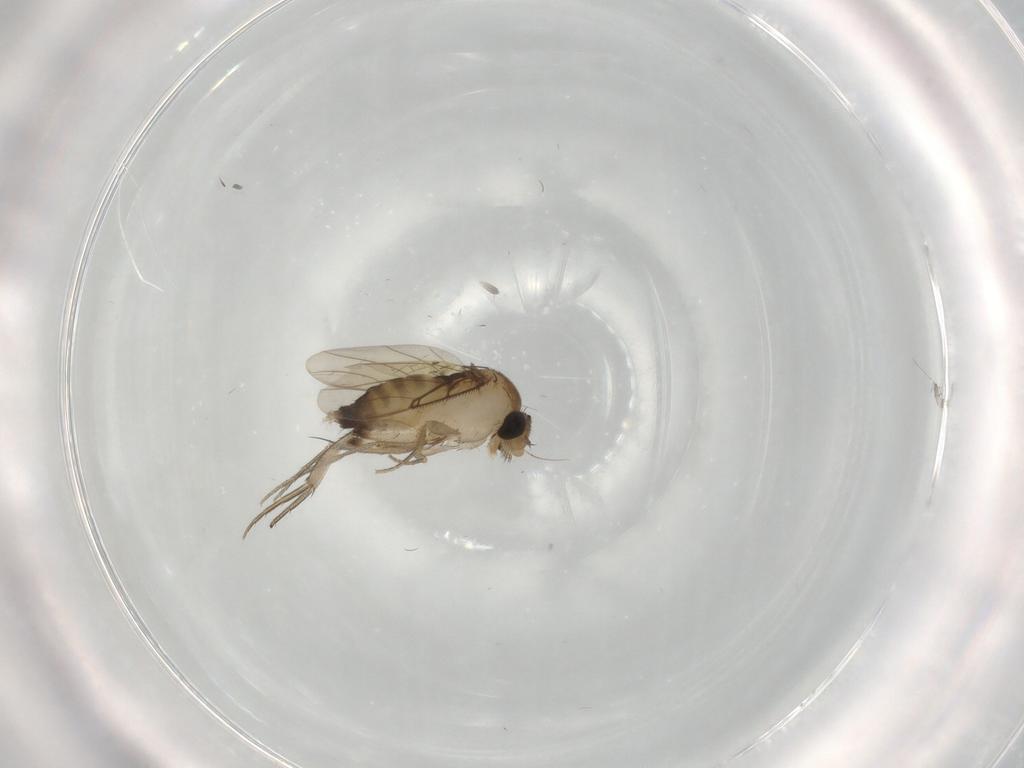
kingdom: Animalia
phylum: Arthropoda
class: Insecta
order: Diptera
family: Phoridae
